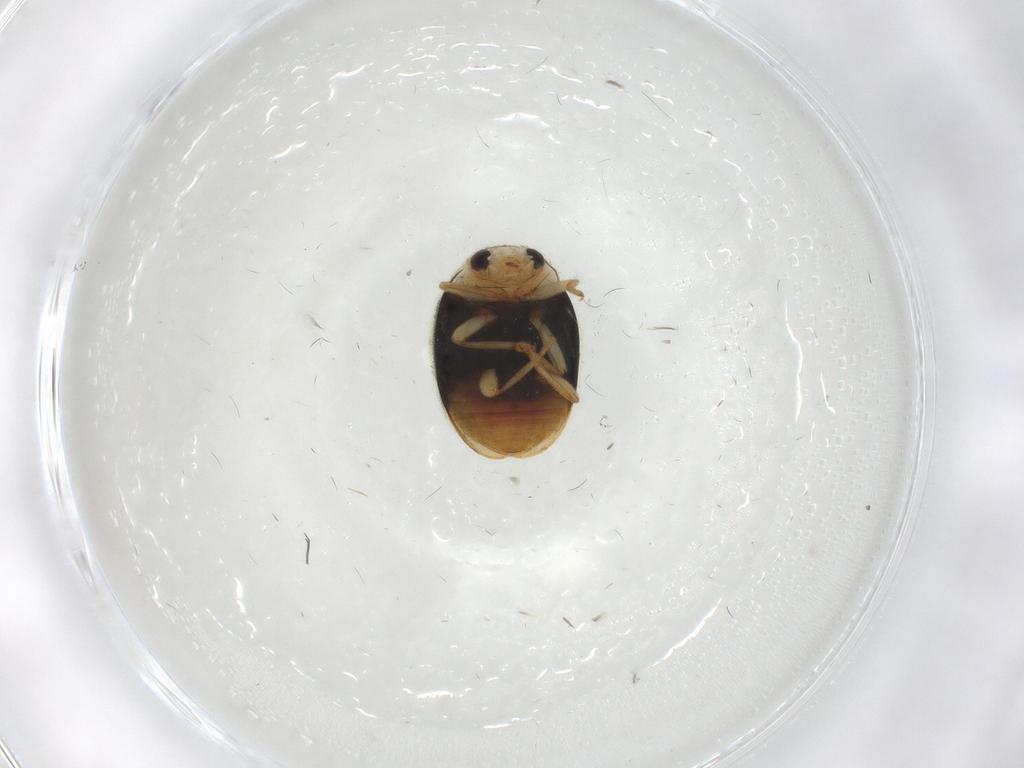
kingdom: Animalia
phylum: Arthropoda
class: Insecta
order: Coleoptera
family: Coccinellidae
